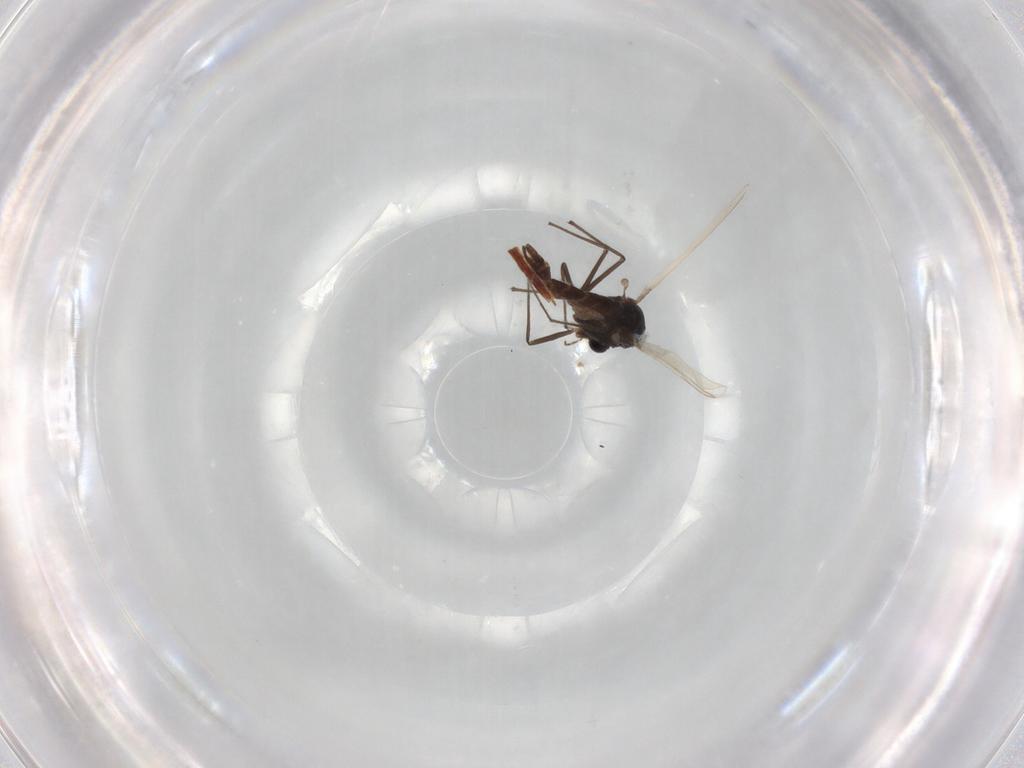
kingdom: Animalia
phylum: Arthropoda
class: Insecta
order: Diptera
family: Chironomidae
